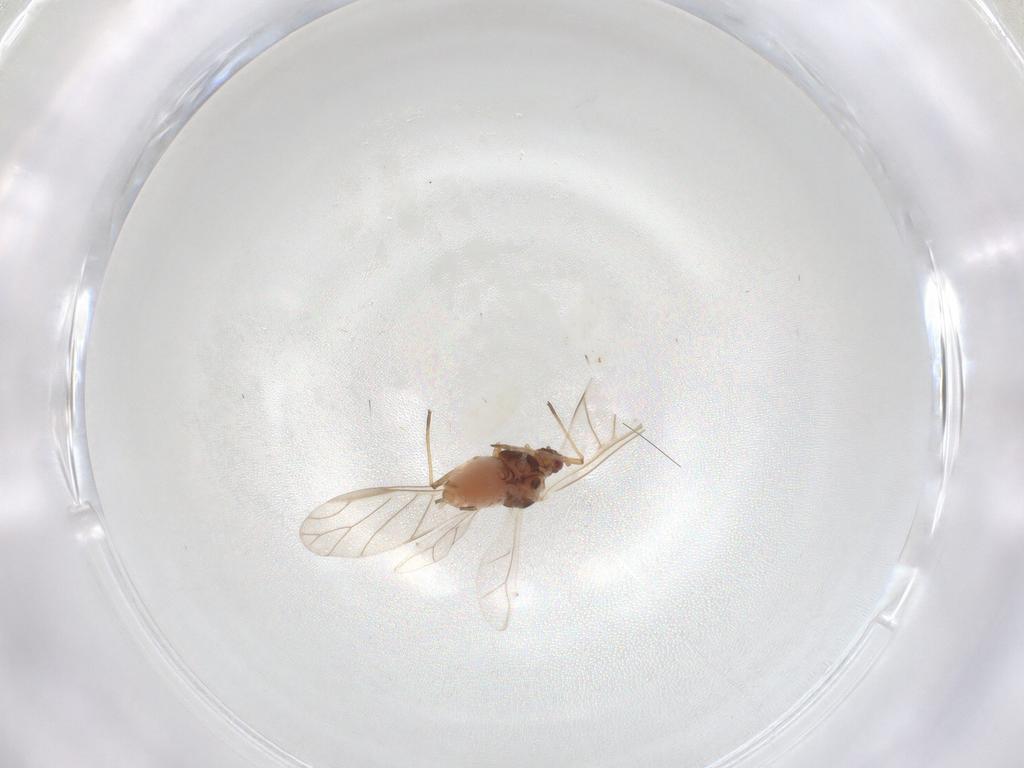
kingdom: Animalia
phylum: Arthropoda
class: Insecta
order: Hemiptera
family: Aphididae
